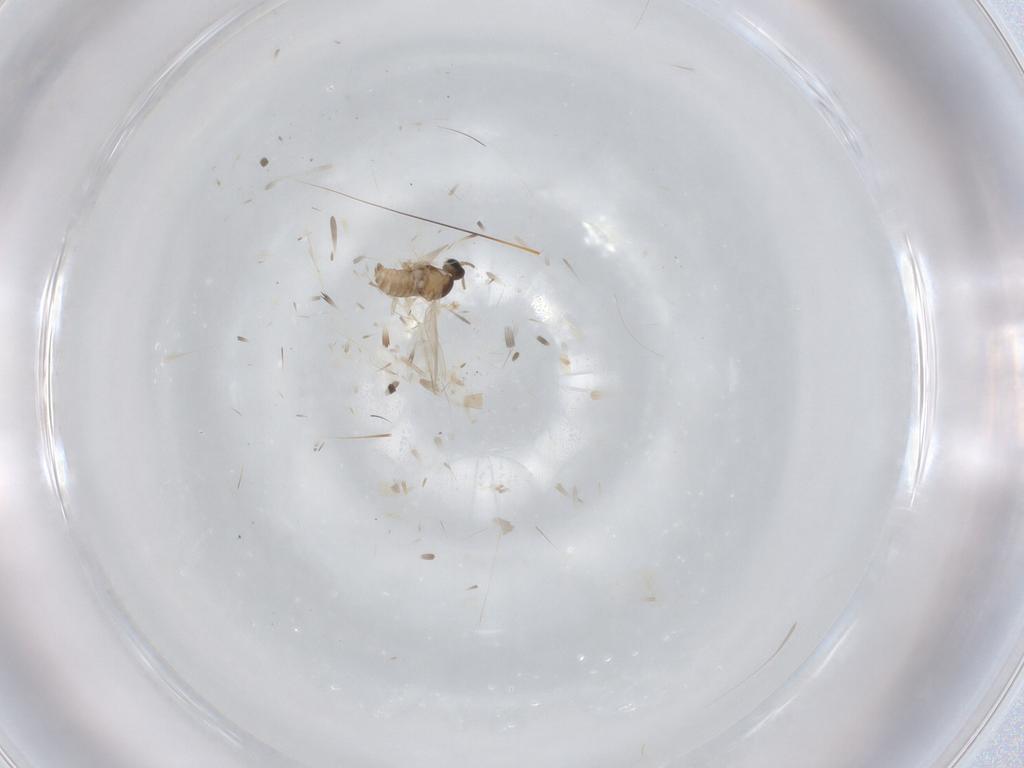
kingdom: Animalia
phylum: Arthropoda
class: Insecta
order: Diptera
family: Cecidomyiidae
